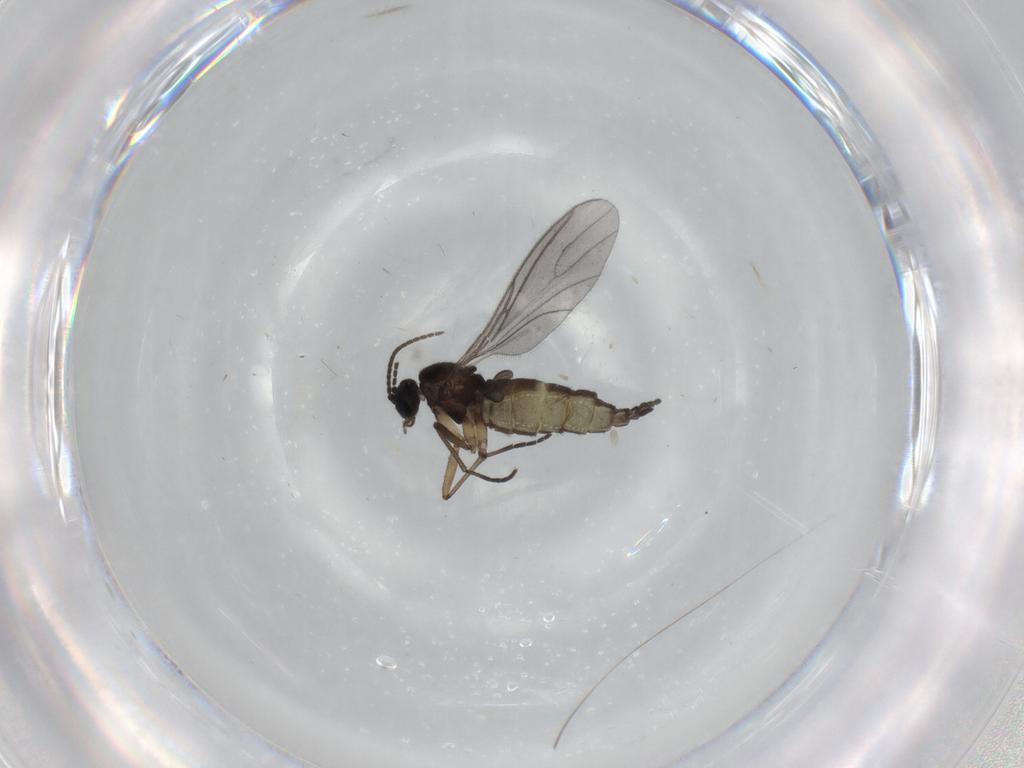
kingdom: Animalia
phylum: Arthropoda
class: Insecta
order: Diptera
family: Sciaridae
